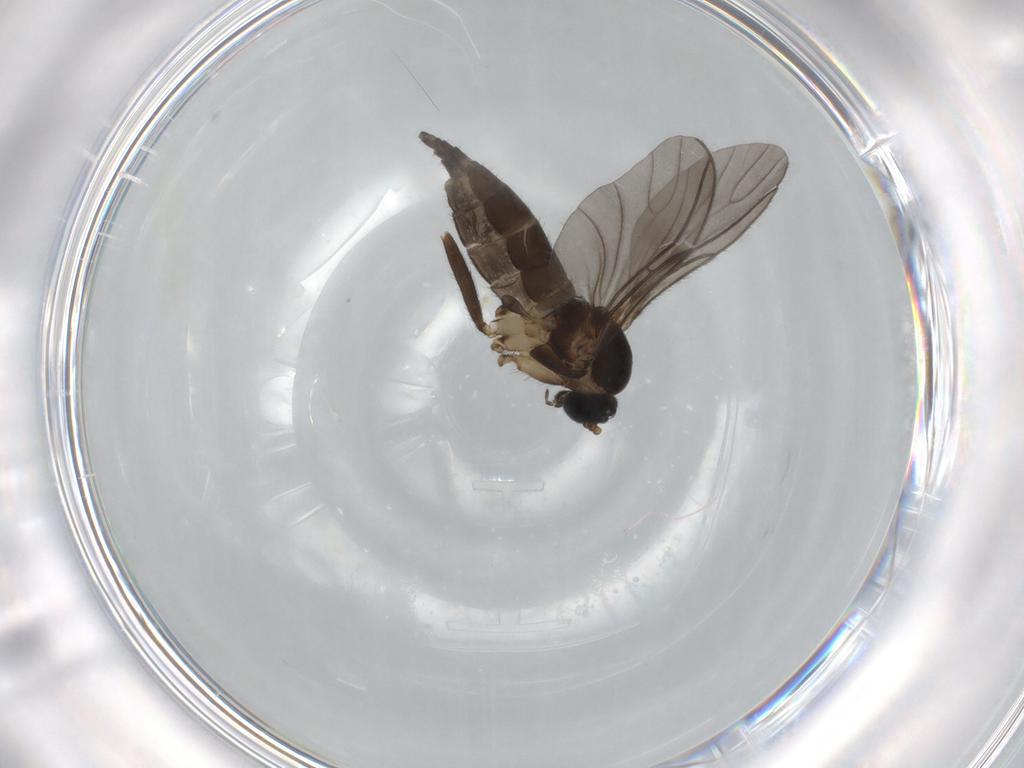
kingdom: Animalia
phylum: Arthropoda
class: Insecta
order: Diptera
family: Sciaridae
